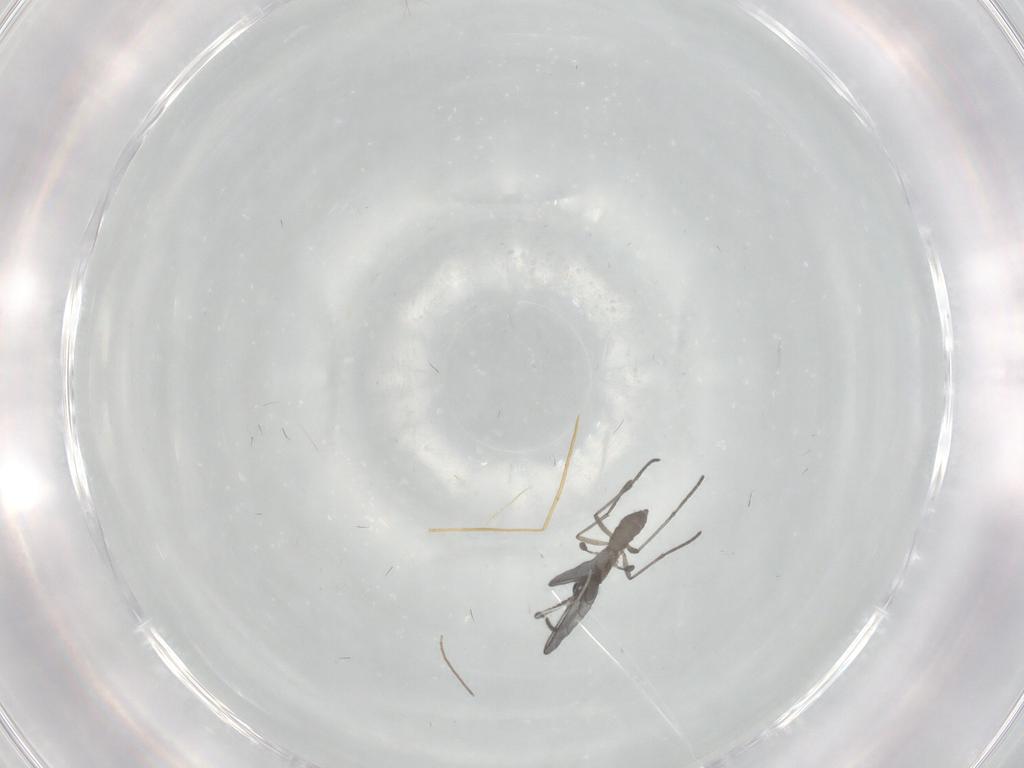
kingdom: Animalia
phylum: Arthropoda
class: Insecta
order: Diptera
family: Chironomidae
